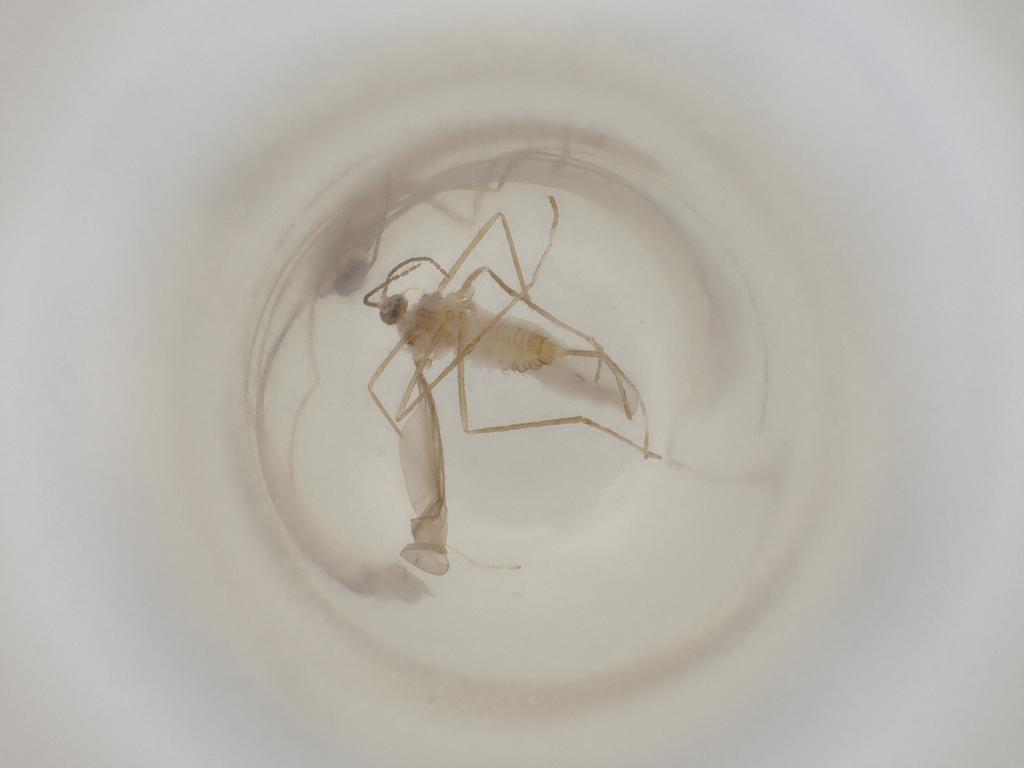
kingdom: Animalia
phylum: Arthropoda
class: Insecta
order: Diptera
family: Cecidomyiidae
